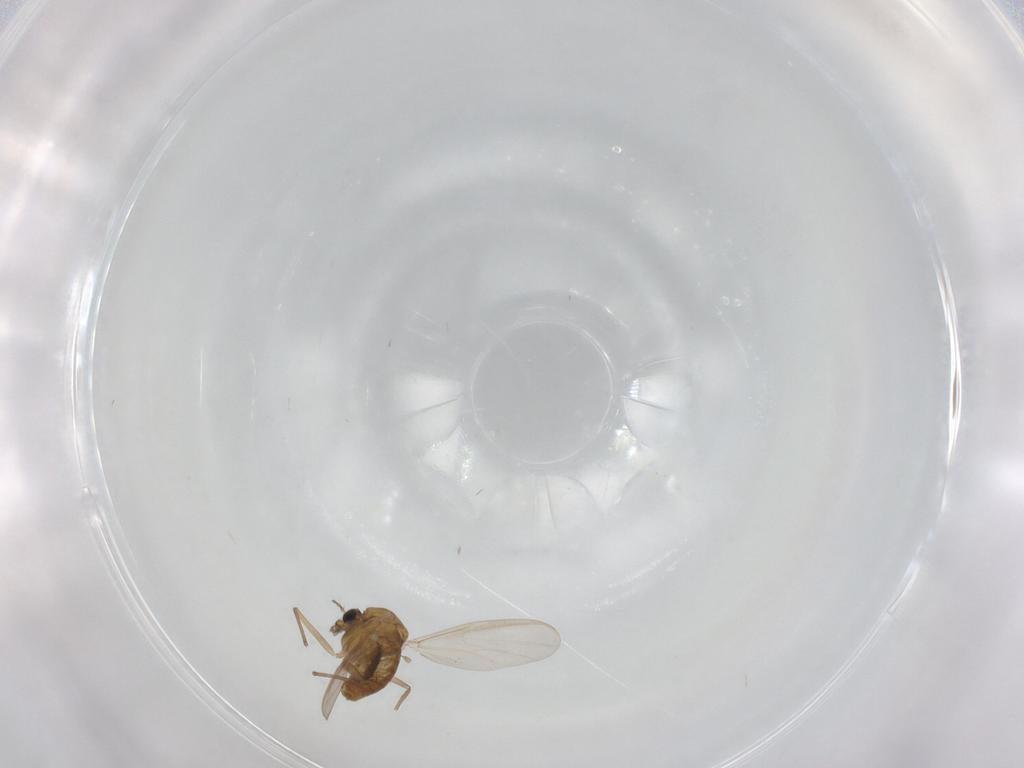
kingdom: Animalia
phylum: Arthropoda
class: Insecta
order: Diptera
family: Chironomidae
